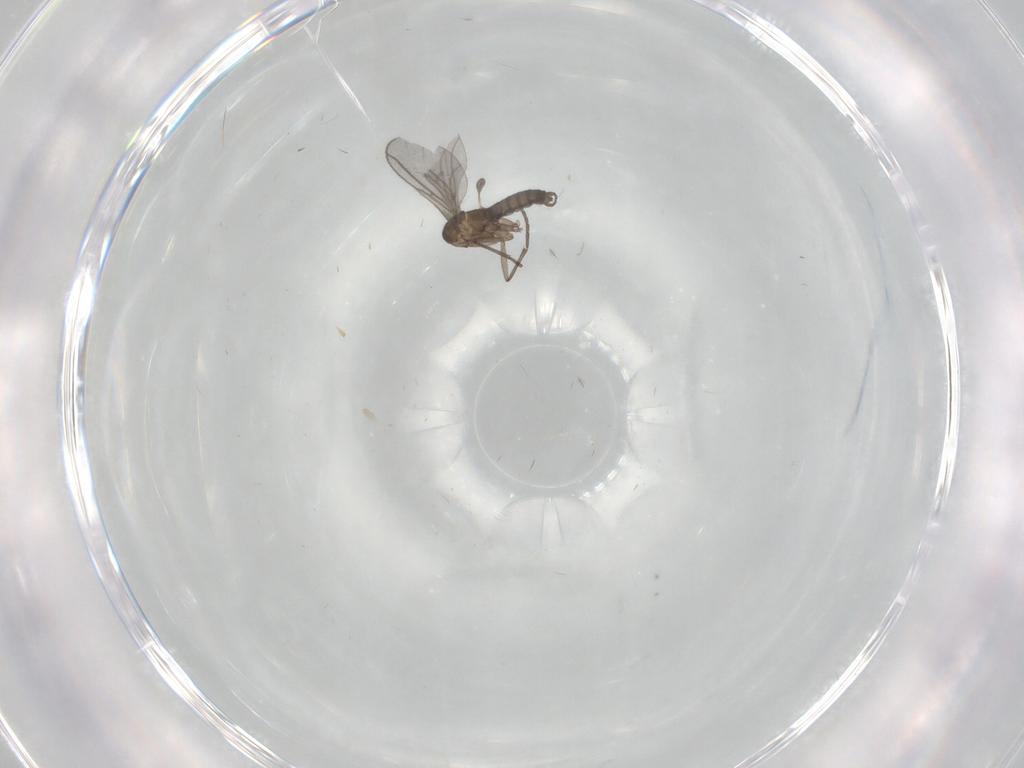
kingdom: Animalia
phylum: Arthropoda
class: Insecta
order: Diptera
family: Limoniidae
